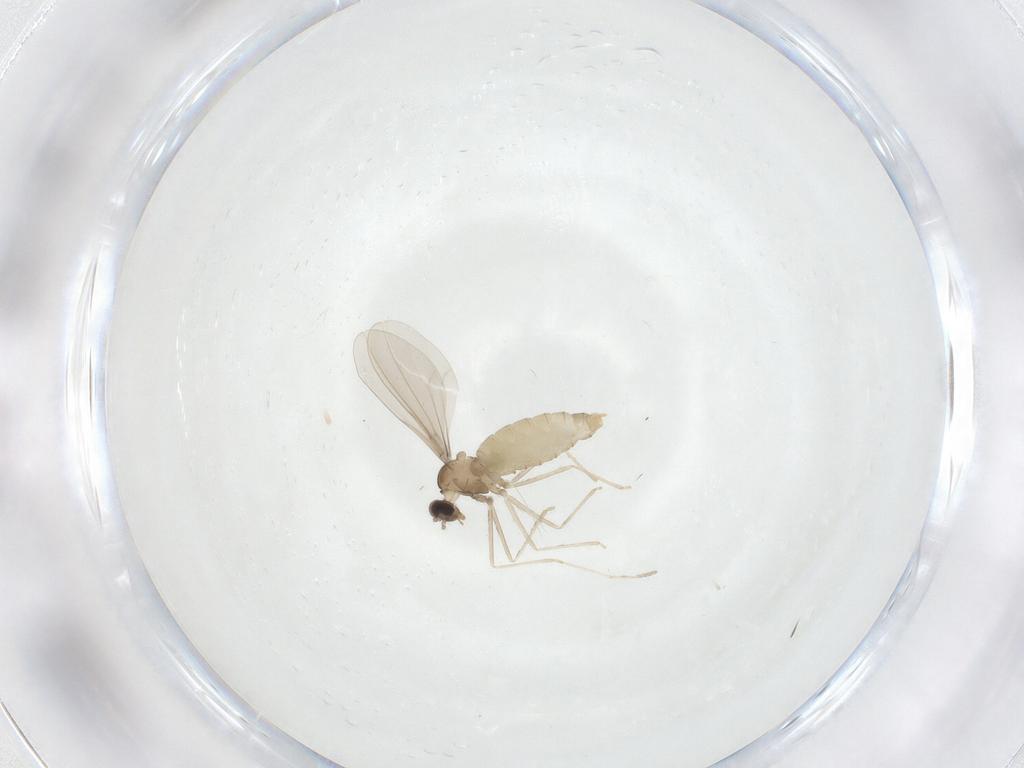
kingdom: Animalia
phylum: Arthropoda
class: Insecta
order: Diptera
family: Cecidomyiidae
